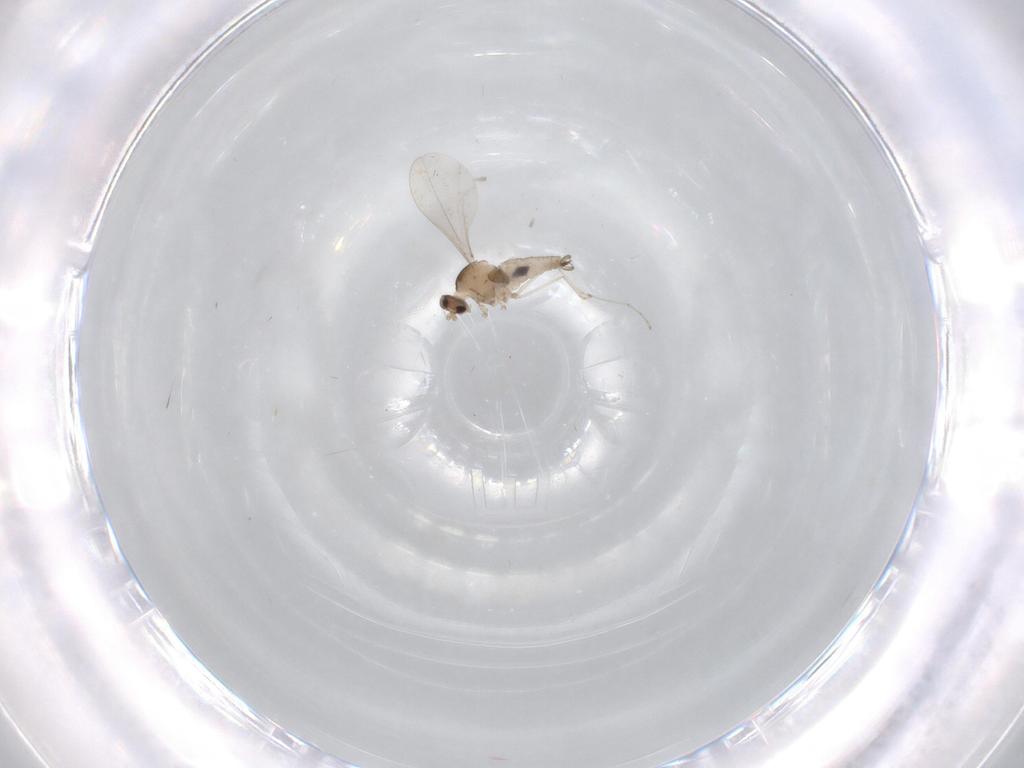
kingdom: Animalia
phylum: Arthropoda
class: Insecta
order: Diptera
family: Cecidomyiidae
